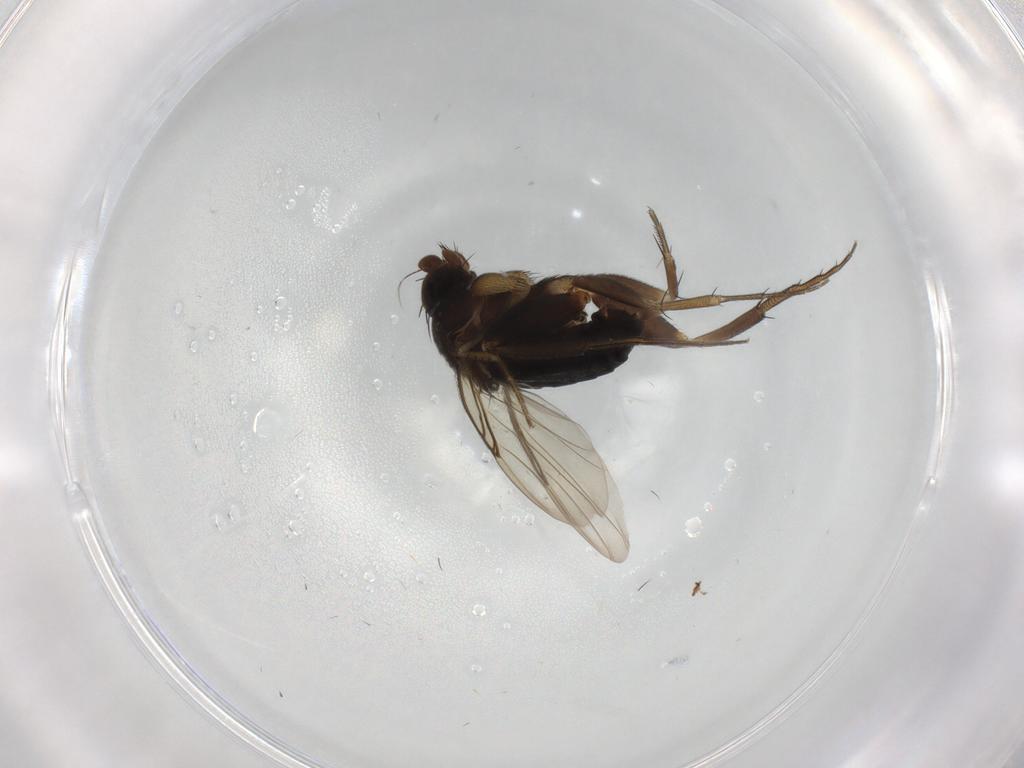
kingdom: Animalia
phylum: Arthropoda
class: Insecta
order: Diptera
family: Phoridae
